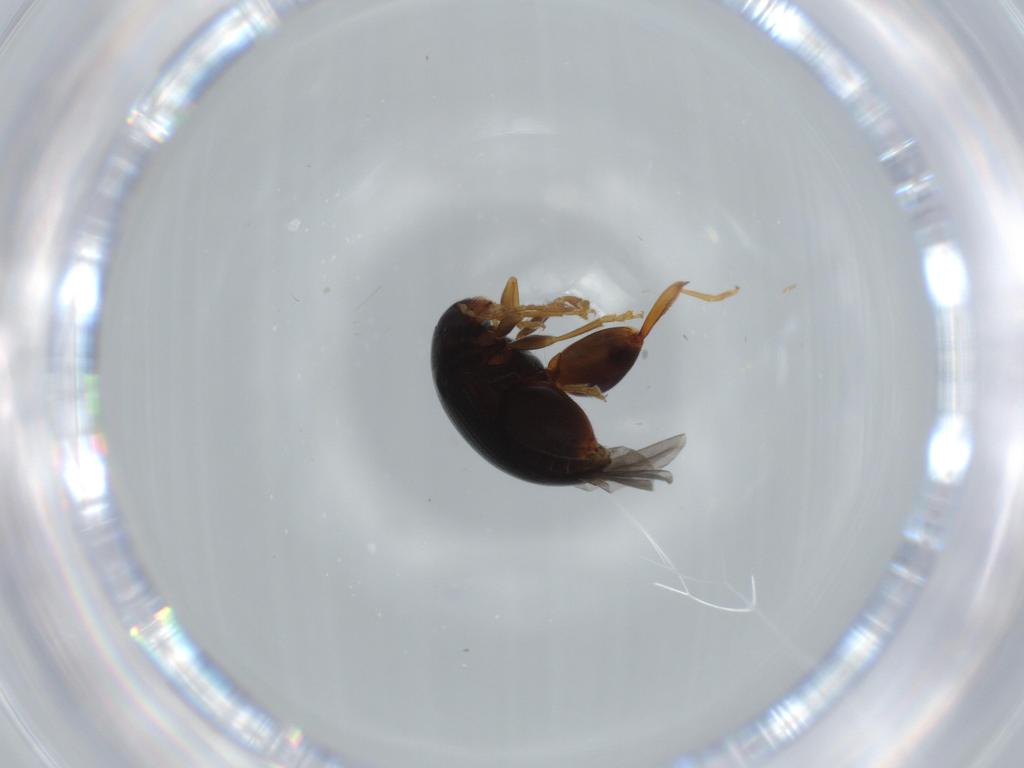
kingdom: Animalia
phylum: Arthropoda
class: Insecta
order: Coleoptera
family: Chrysomelidae
